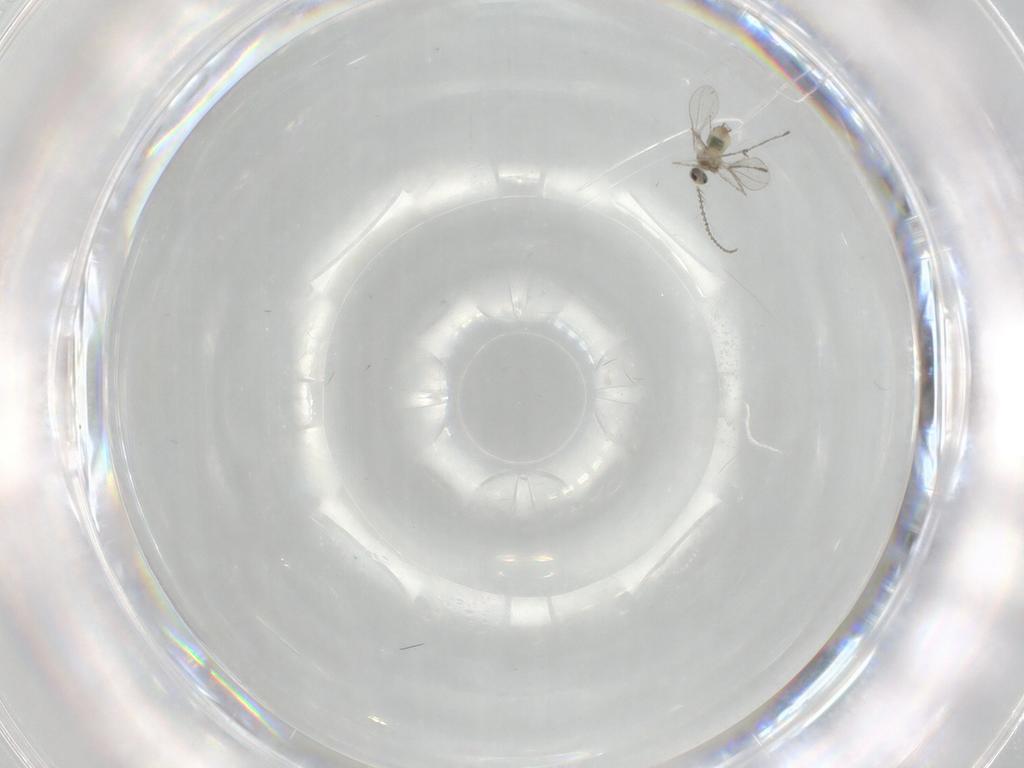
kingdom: Animalia
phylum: Arthropoda
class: Insecta
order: Diptera
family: Cecidomyiidae
